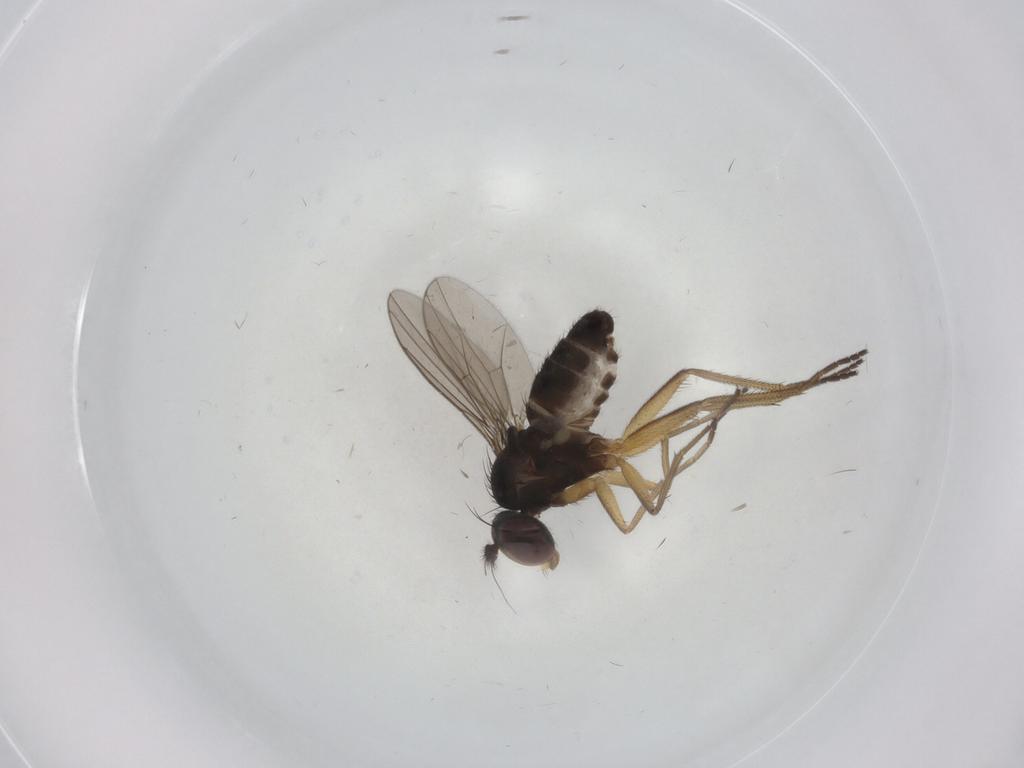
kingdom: Animalia
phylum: Arthropoda
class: Insecta
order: Diptera
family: Dolichopodidae
